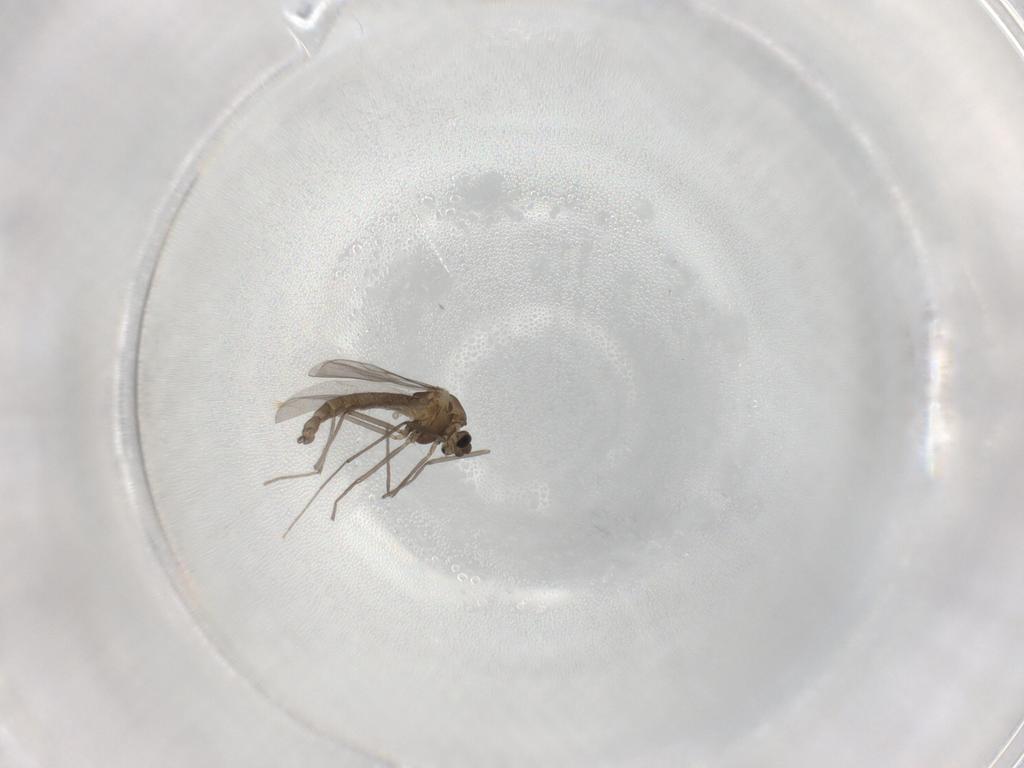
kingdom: Animalia
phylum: Arthropoda
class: Insecta
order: Diptera
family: Chironomidae
